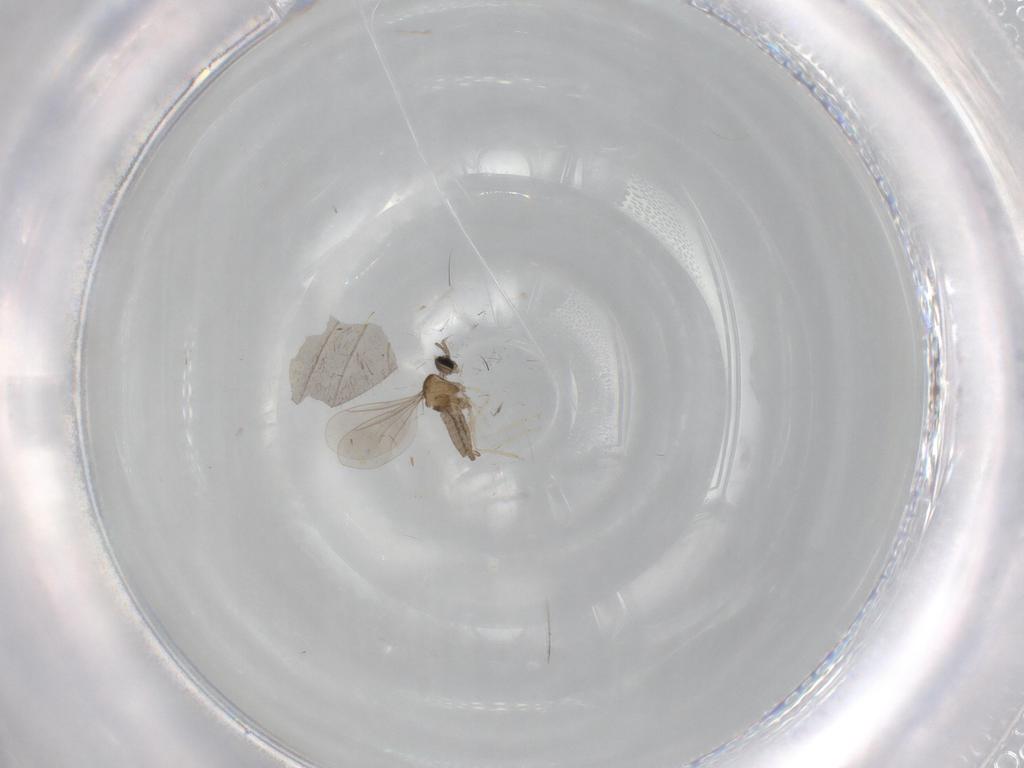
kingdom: Animalia
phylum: Arthropoda
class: Insecta
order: Diptera
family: Dolichopodidae
